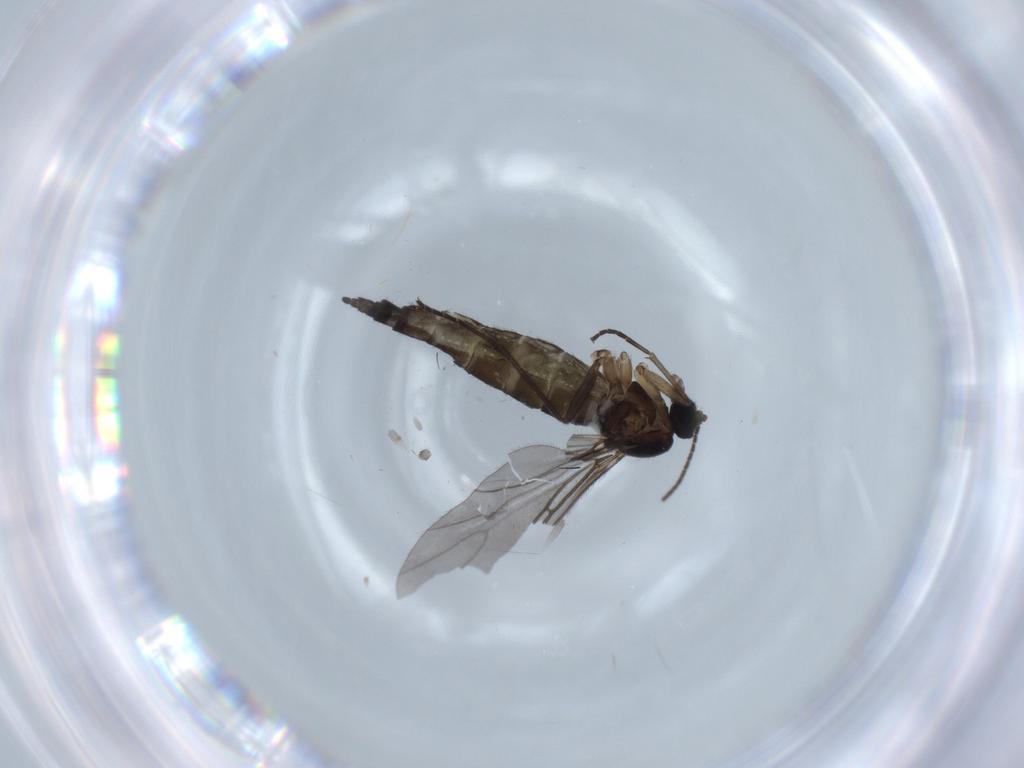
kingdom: Animalia
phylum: Arthropoda
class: Insecta
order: Diptera
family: Sciaridae
